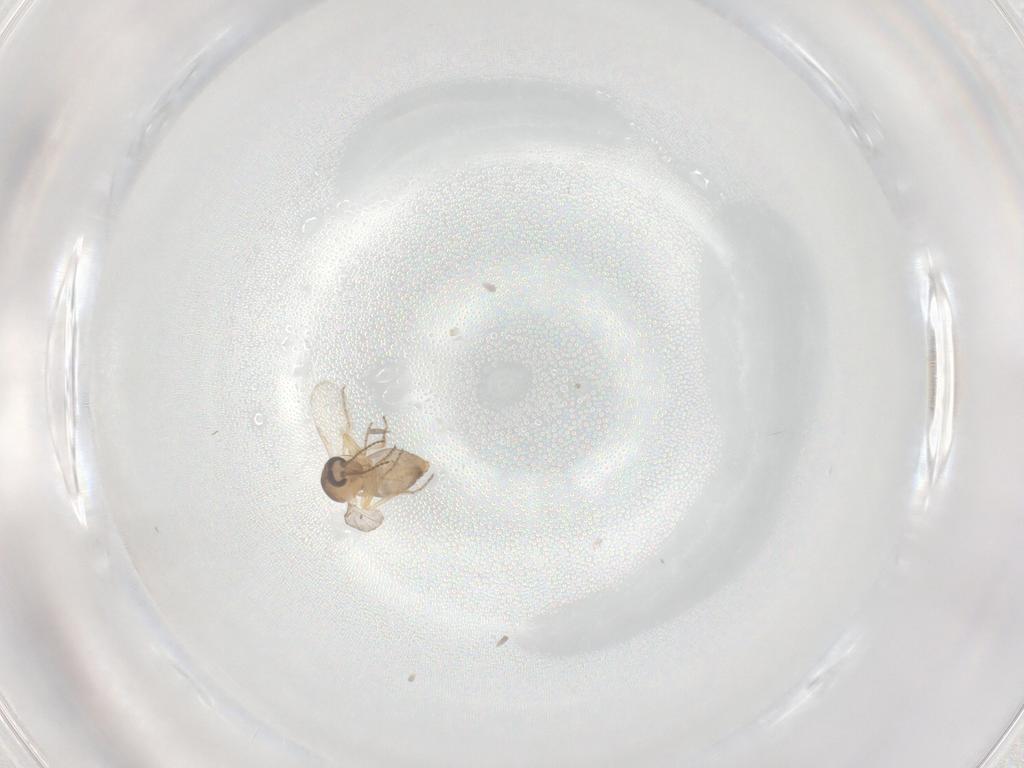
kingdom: Animalia
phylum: Arthropoda
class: Insecta
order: Diptera
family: Ceratopogonidae
